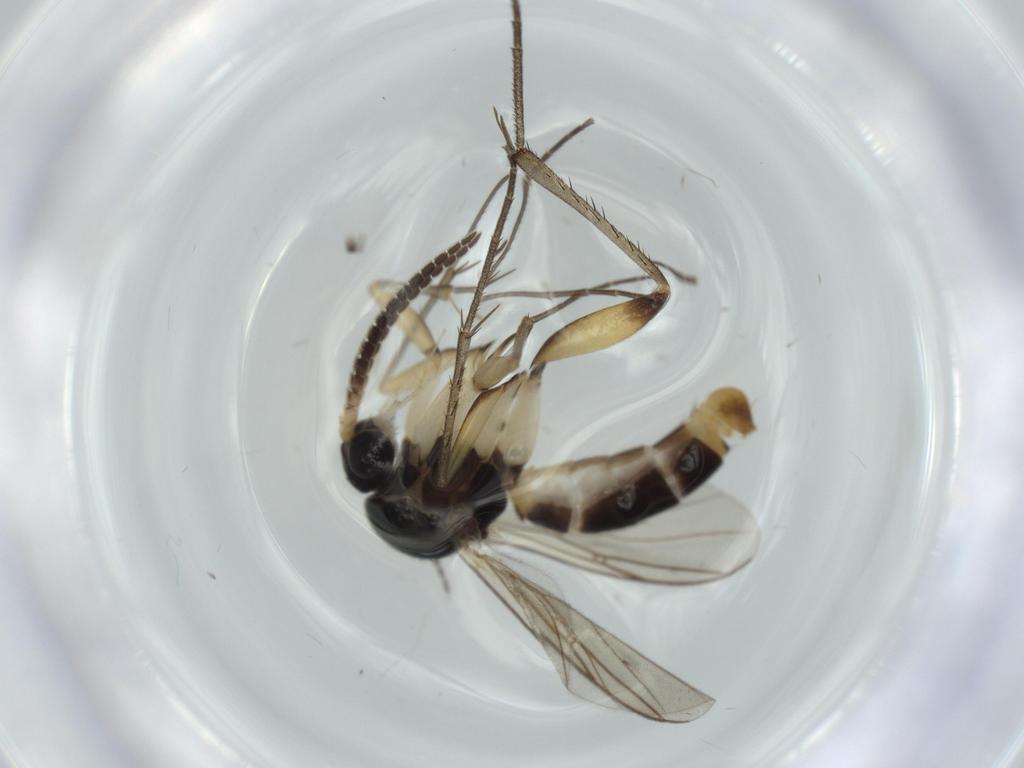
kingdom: Animalia
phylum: Arthropoda
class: Insecta
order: Diptera
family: Chironomidae
